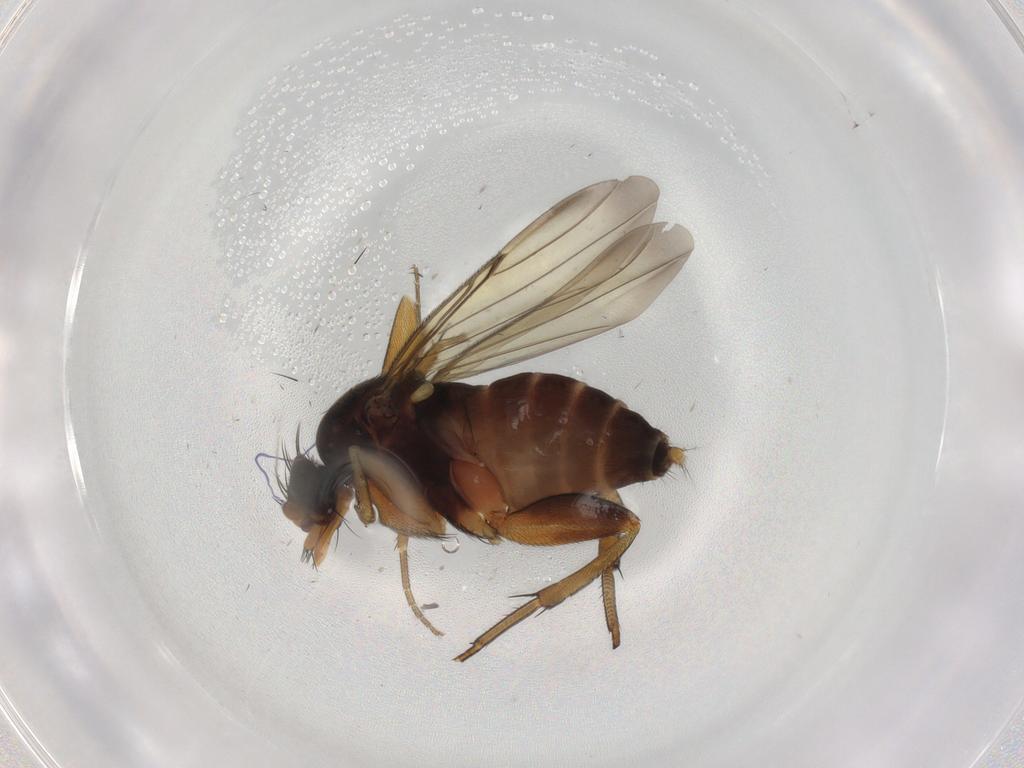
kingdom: Animalia
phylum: Arthropoda
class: Insecta
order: Diptera
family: Phoridae
